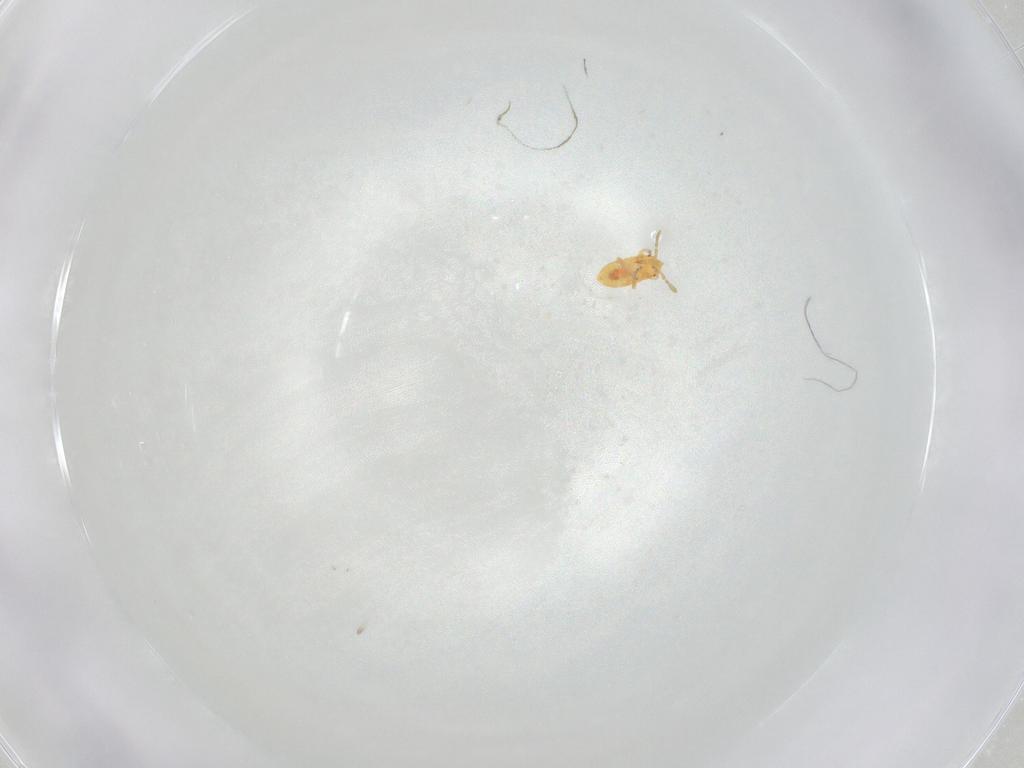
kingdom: Animalia
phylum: Arthropoda
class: Insecta
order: Hemiptera
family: Anthocoridae
